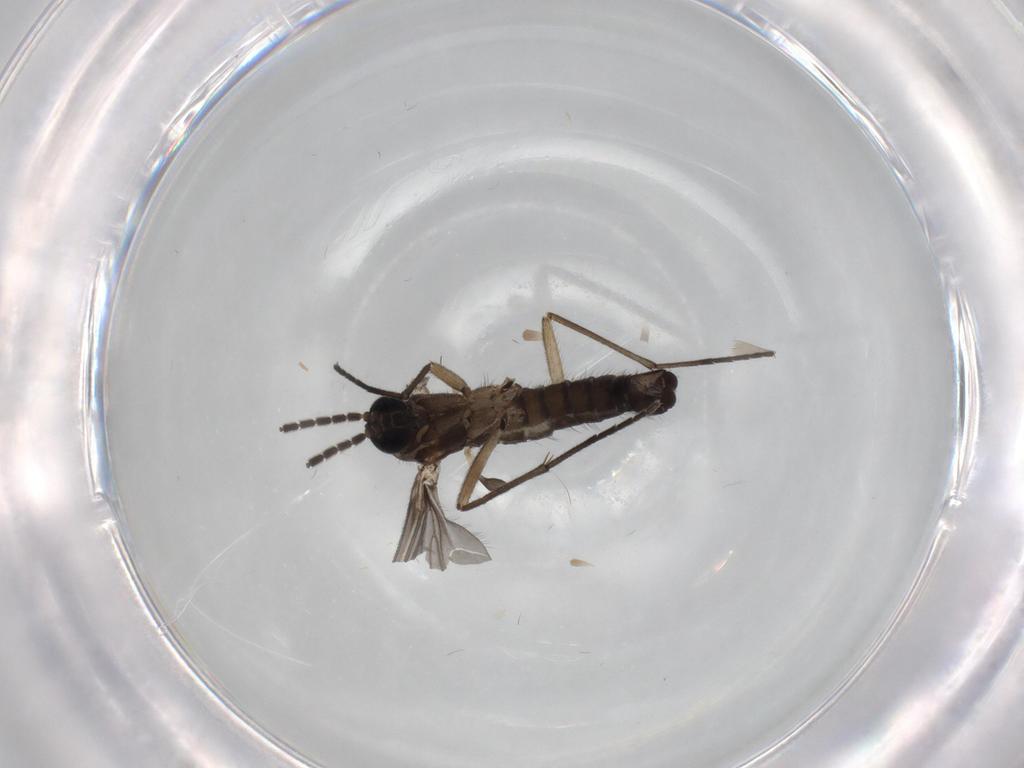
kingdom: Animalia
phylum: Arthropoda
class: Insecta
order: Diptera
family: Sciaridae
